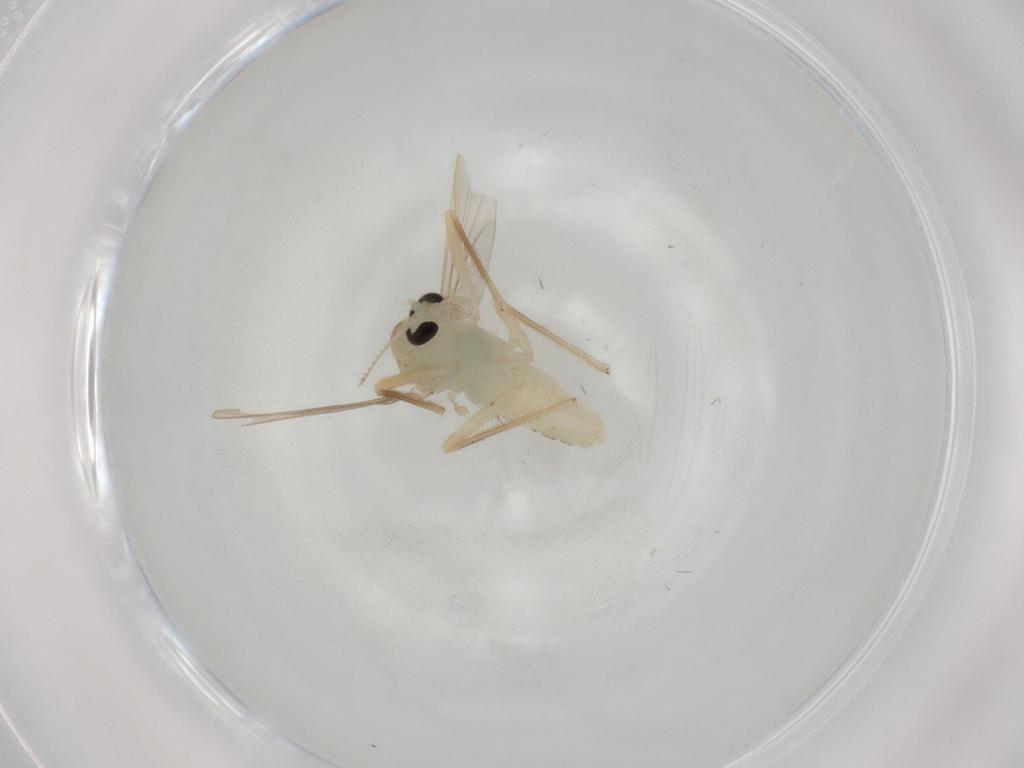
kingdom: Animalia
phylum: Arthropoda
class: Insecta
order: Diptera
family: Chironomidae
